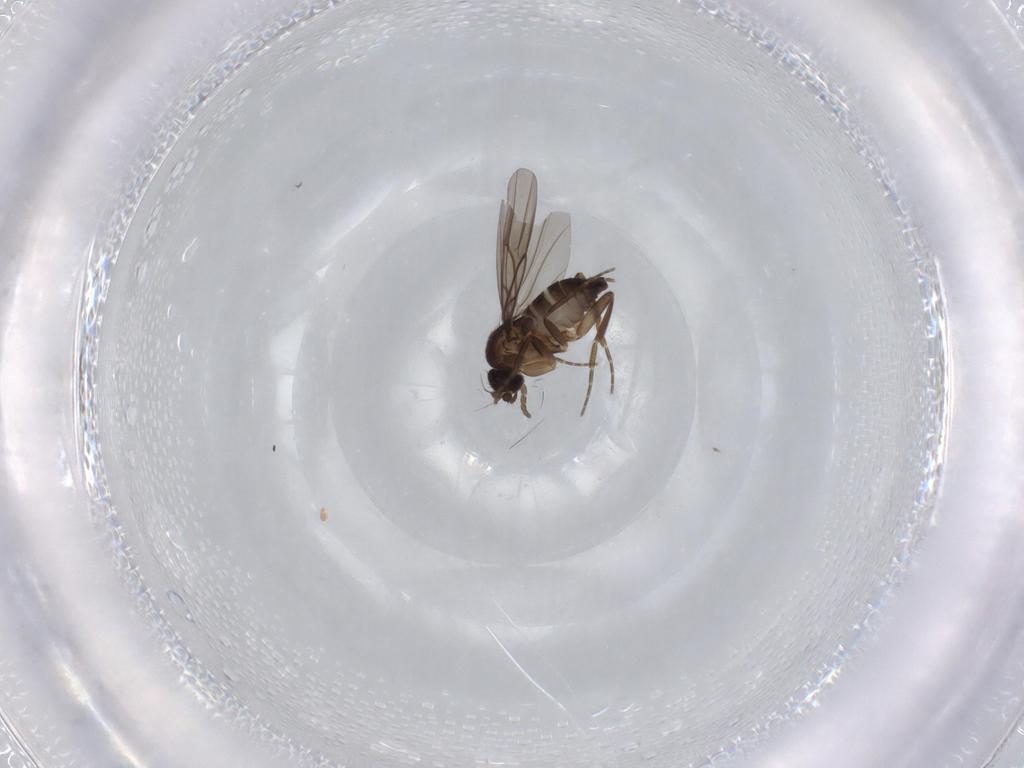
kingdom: Animalia
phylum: Arthropoda
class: Insecta
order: Diptera
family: Chironomidae
